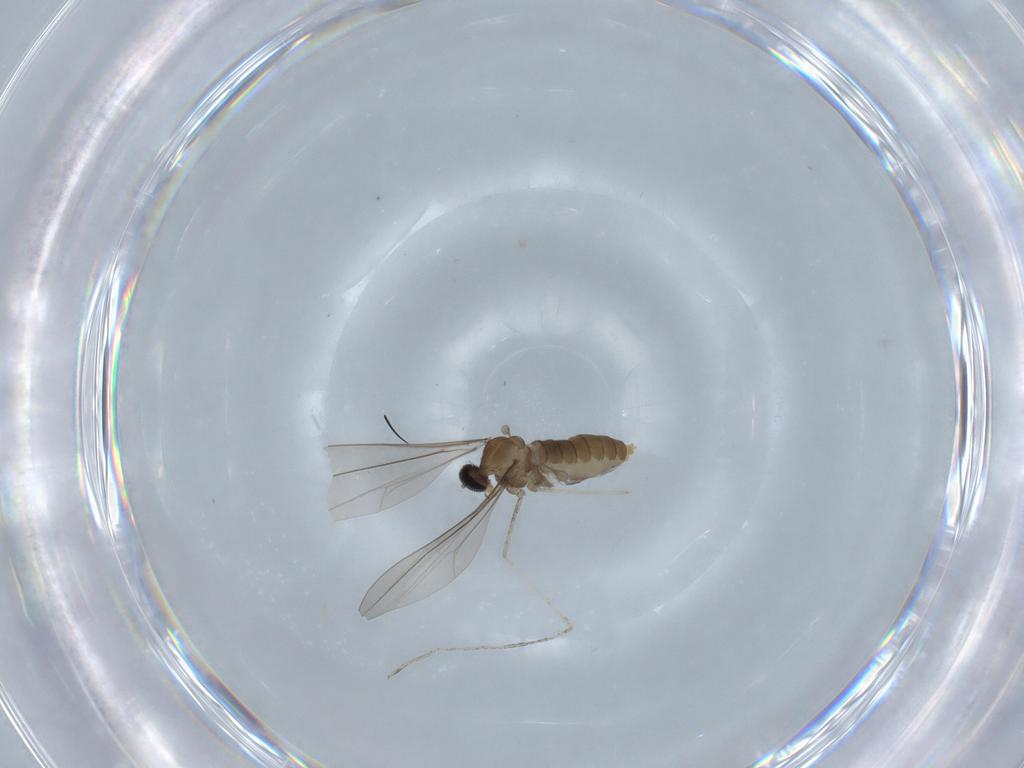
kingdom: Animalia
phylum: Arthropoda
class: Insecta
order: Diptera
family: Cecidomyiidae
